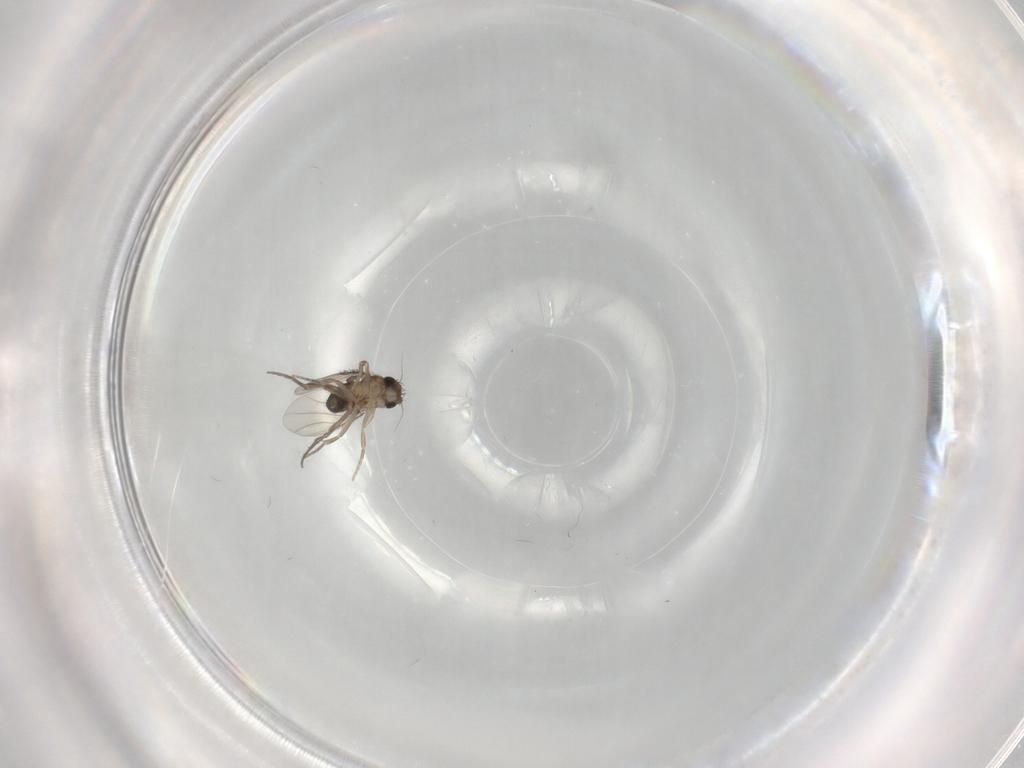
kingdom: Animalia
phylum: Arthropoda
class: Insecta
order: Diptera
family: Phoridae
